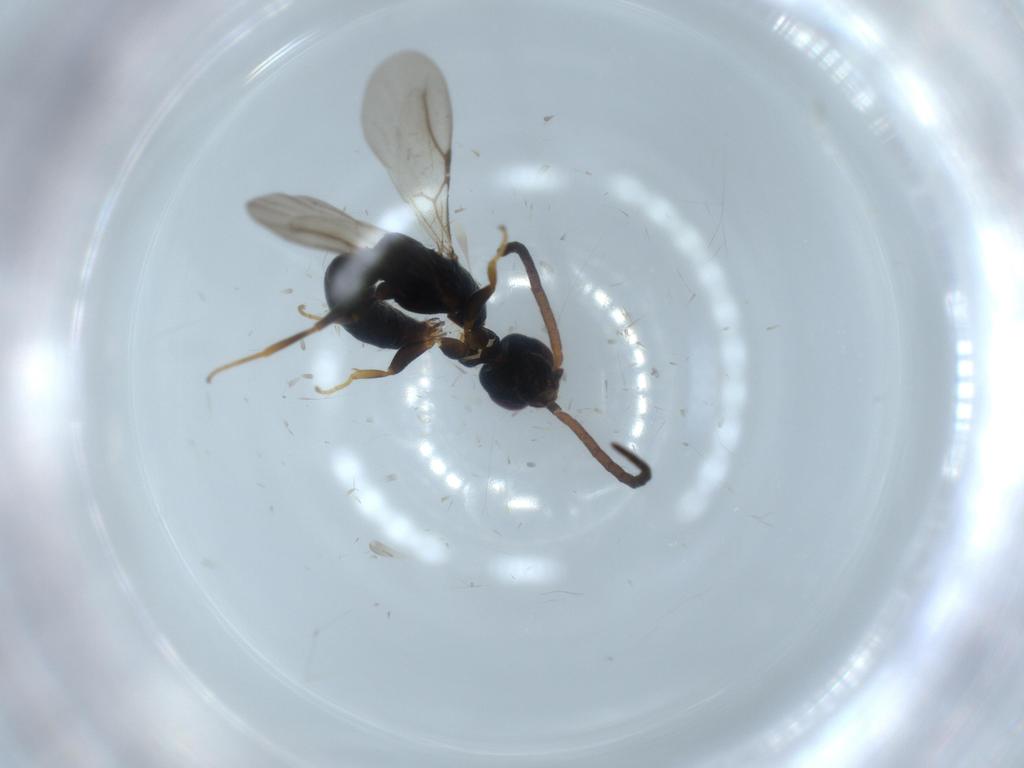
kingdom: Animalia
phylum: Arthropoda
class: Insecta
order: Hymenoptera
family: Bethylidae
